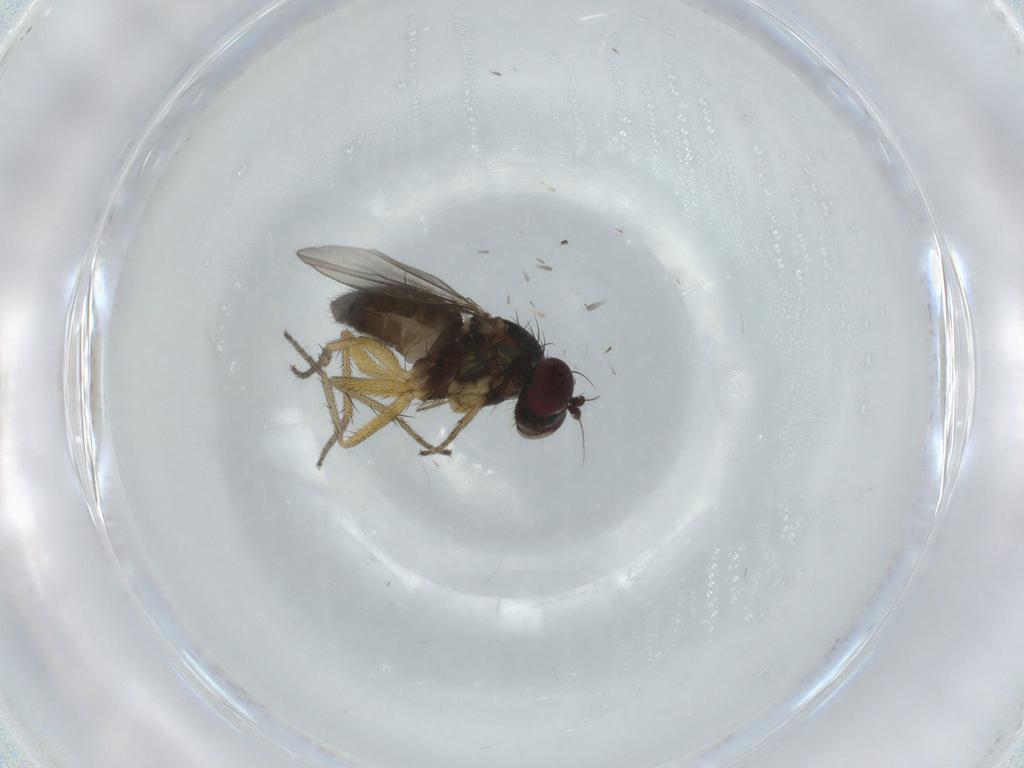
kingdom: Animalia
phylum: Arthropoda
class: Insecta
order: Diptera
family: Dolichopodidae
